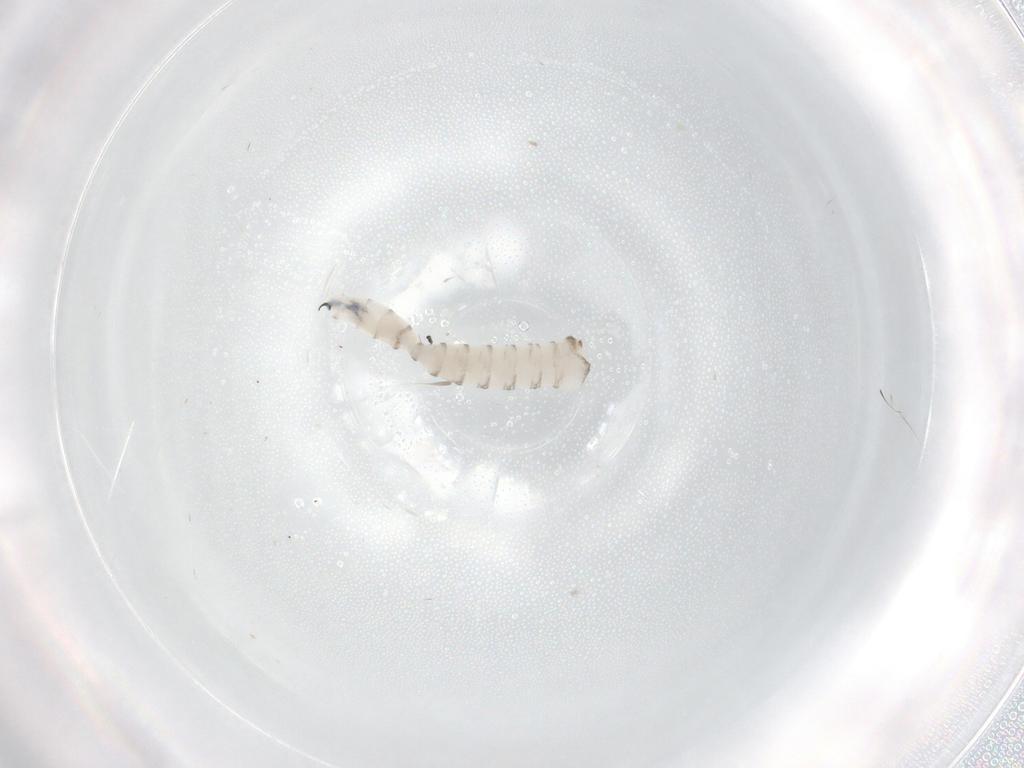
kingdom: Animalia
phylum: Arthropoda
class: Insecta
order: Diptera
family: Sarcophagidae
